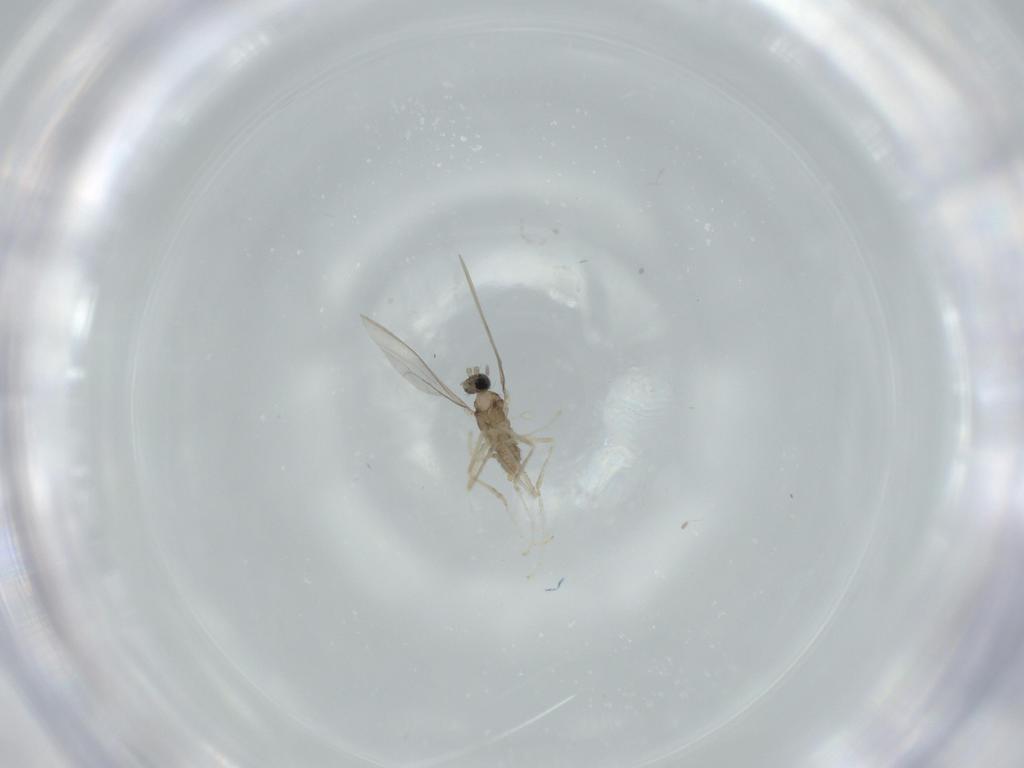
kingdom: Animalia
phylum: Arthropoda
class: Insecta
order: Diptera
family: Cecidomyiidae
